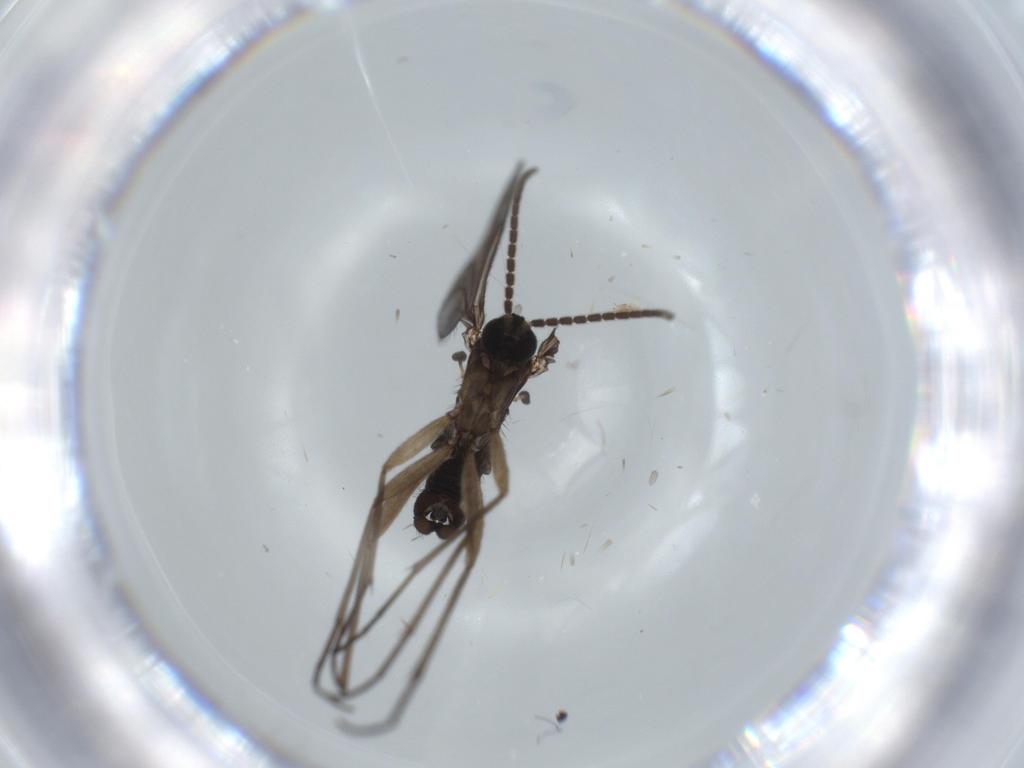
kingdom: Animalia
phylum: Arthropoda
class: Insecta
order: Diptera
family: Sciaridae
